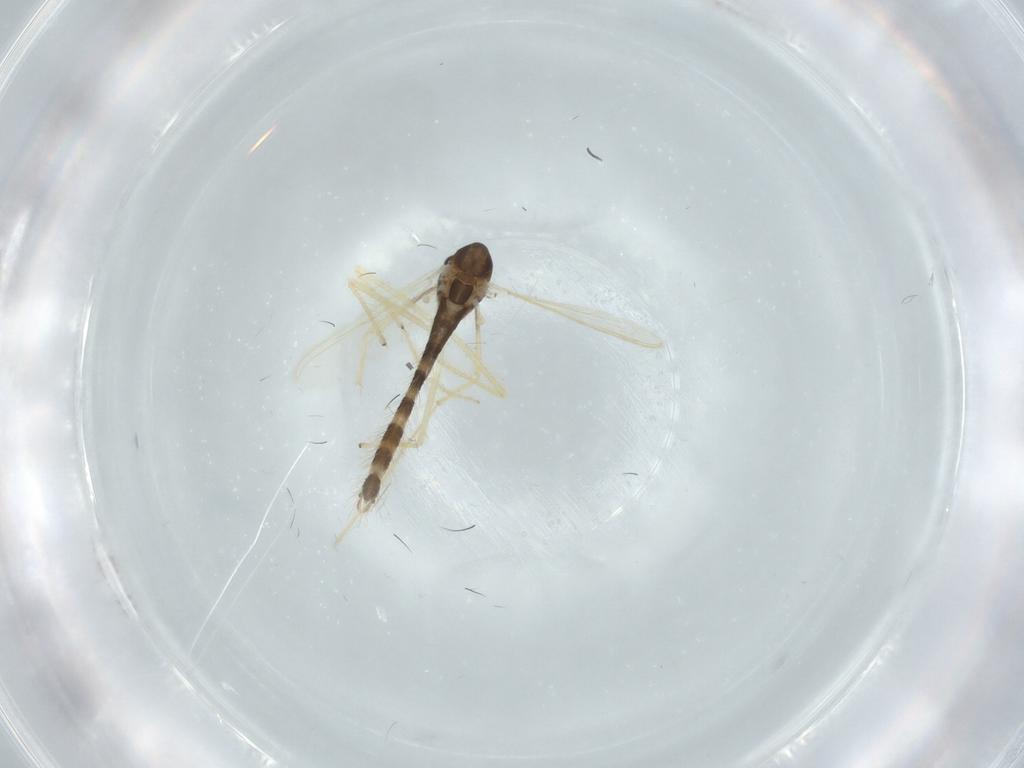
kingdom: Animalia
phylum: Arthropoda
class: Insecta
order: Diptera
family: Chironomidae
